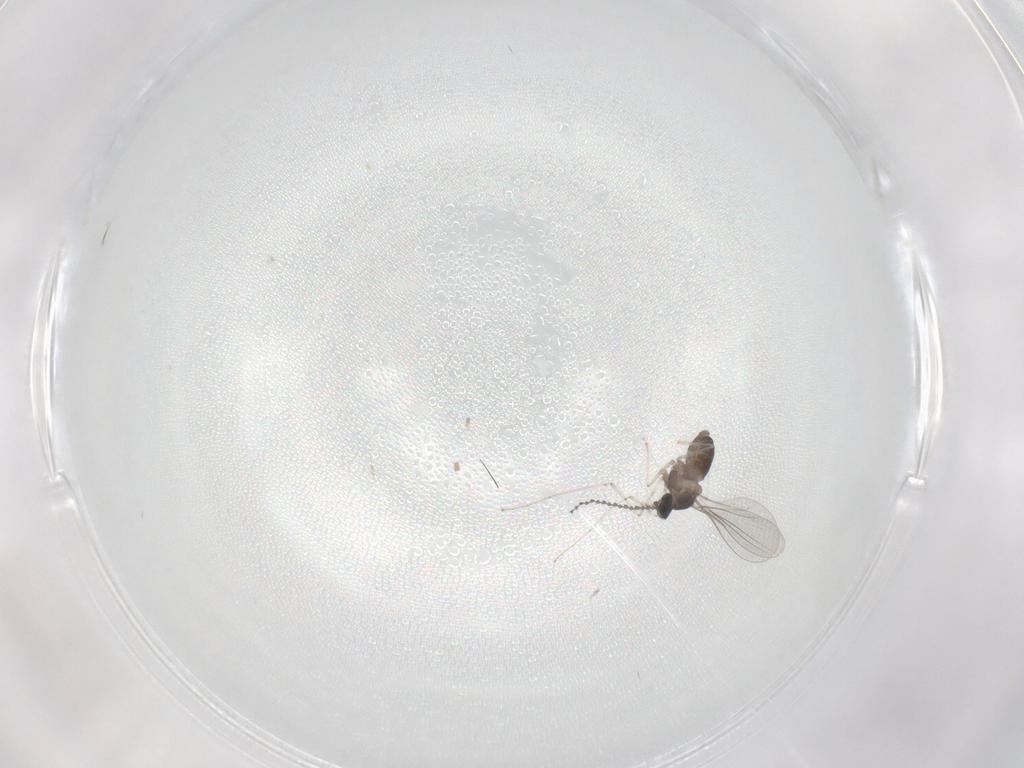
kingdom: Animalia
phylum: Arthropoda
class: Insecta
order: Diptera
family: Cecidomyiidae
